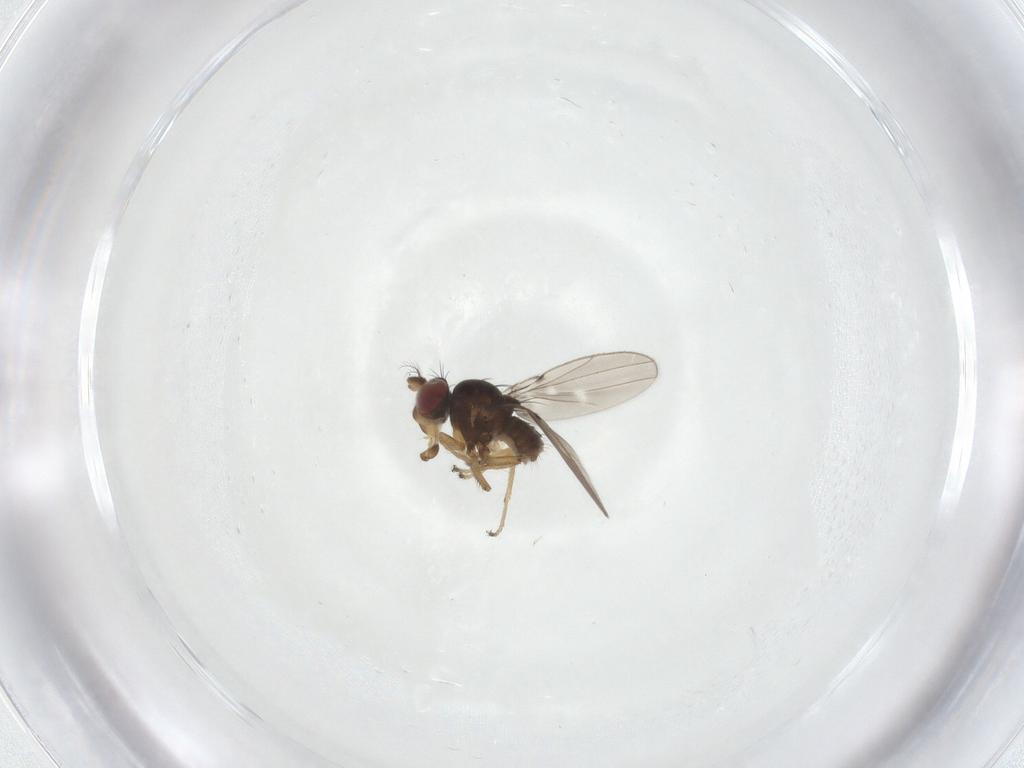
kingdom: Animalia
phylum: Arthropoda
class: Insecta
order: Diptera
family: Ephydridae
